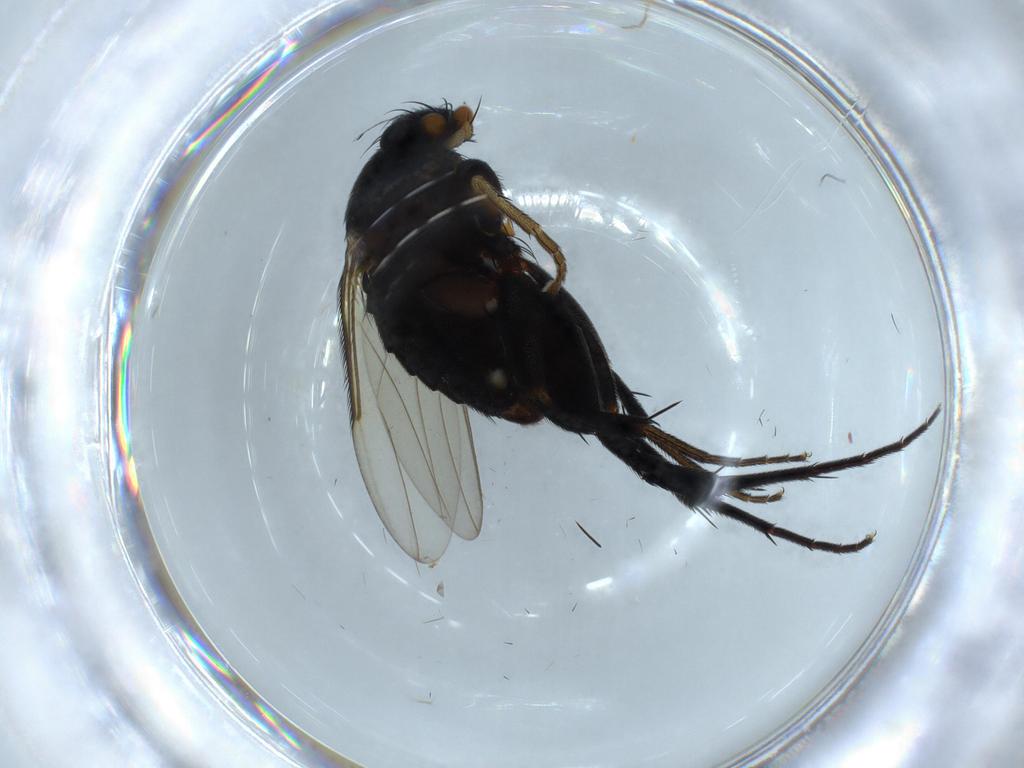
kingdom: Animalia
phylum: Arthropoda
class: Insecta
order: Diptera
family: Phoridae
